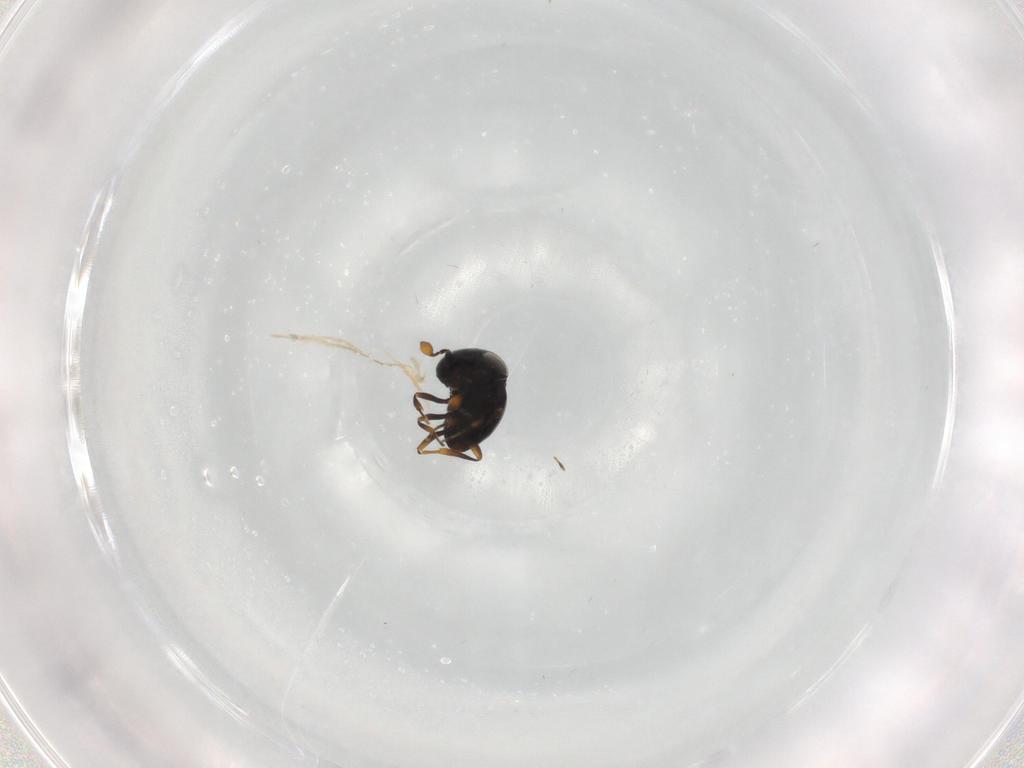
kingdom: Animalia
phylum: Arthropoda
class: Insecta
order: Hymenoptera
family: Scelionidae
